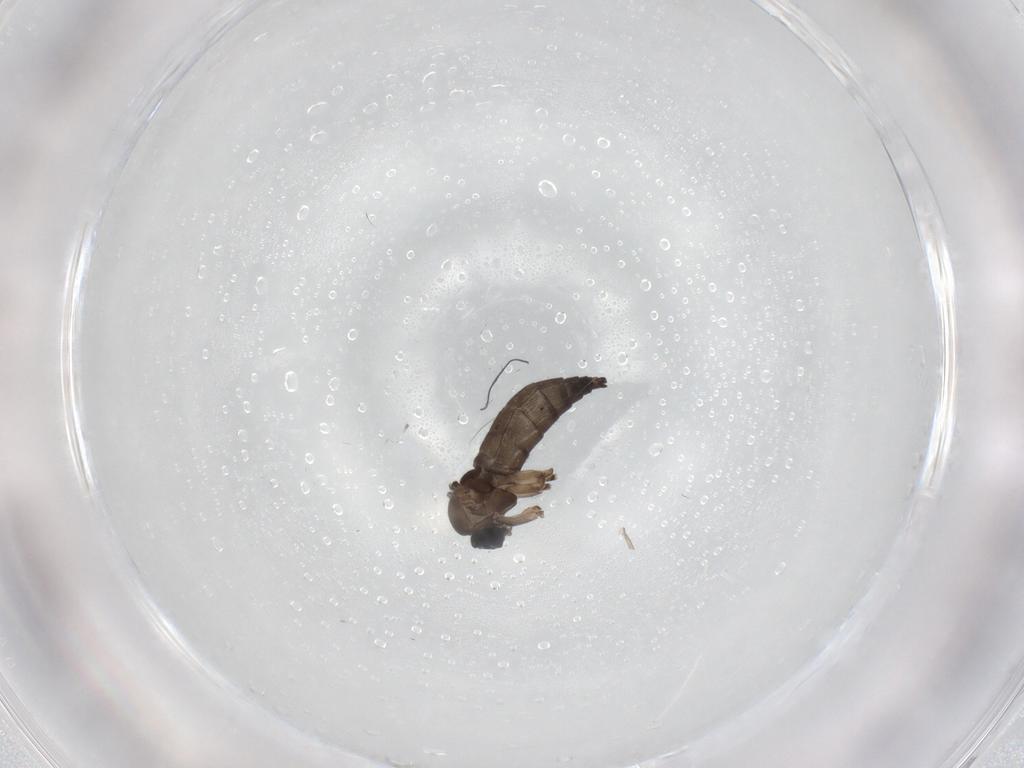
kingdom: Animalia
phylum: Arthropoda
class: Insecta
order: Diptera
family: Sciaridae
